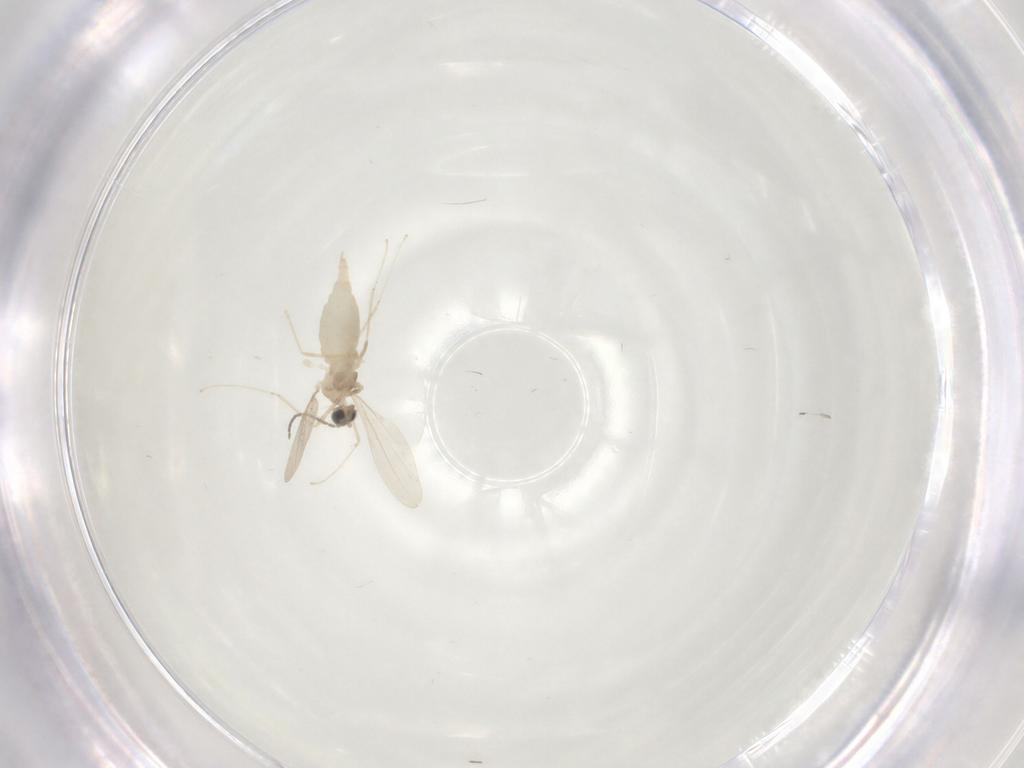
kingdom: Animalia
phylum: Arthropoda
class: Insecta
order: Diptera
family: Cecidomyiidae
